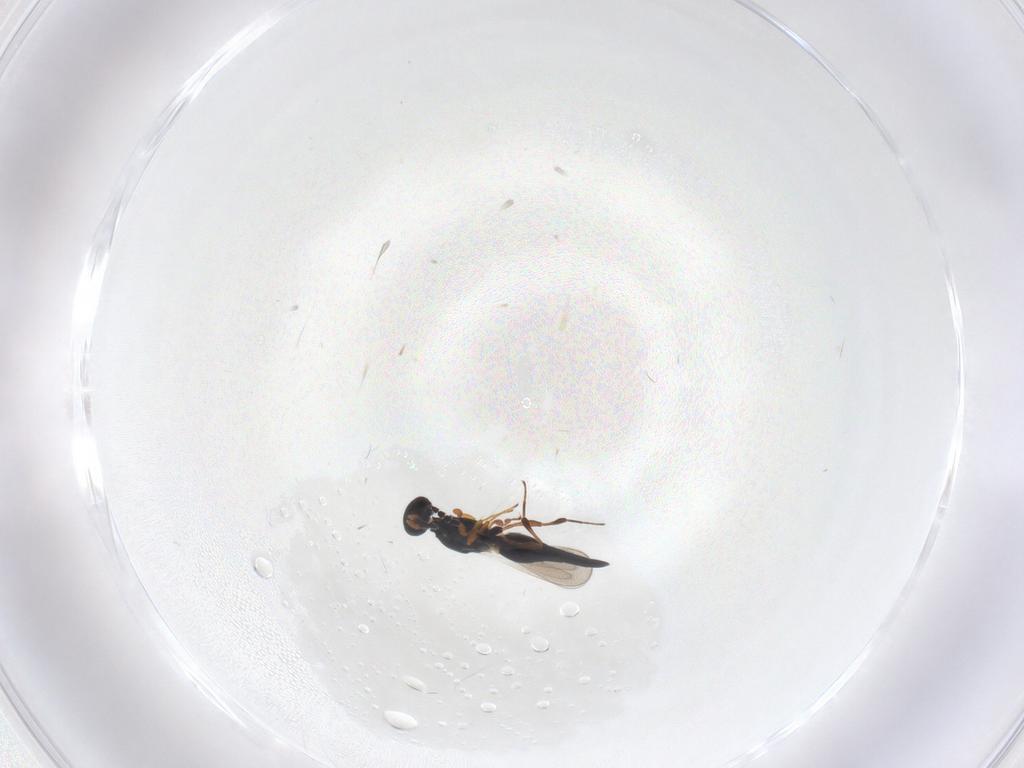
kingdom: Animalia
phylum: Arthropoda
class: Insecta
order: Hymenoptera
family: Platygastridae
